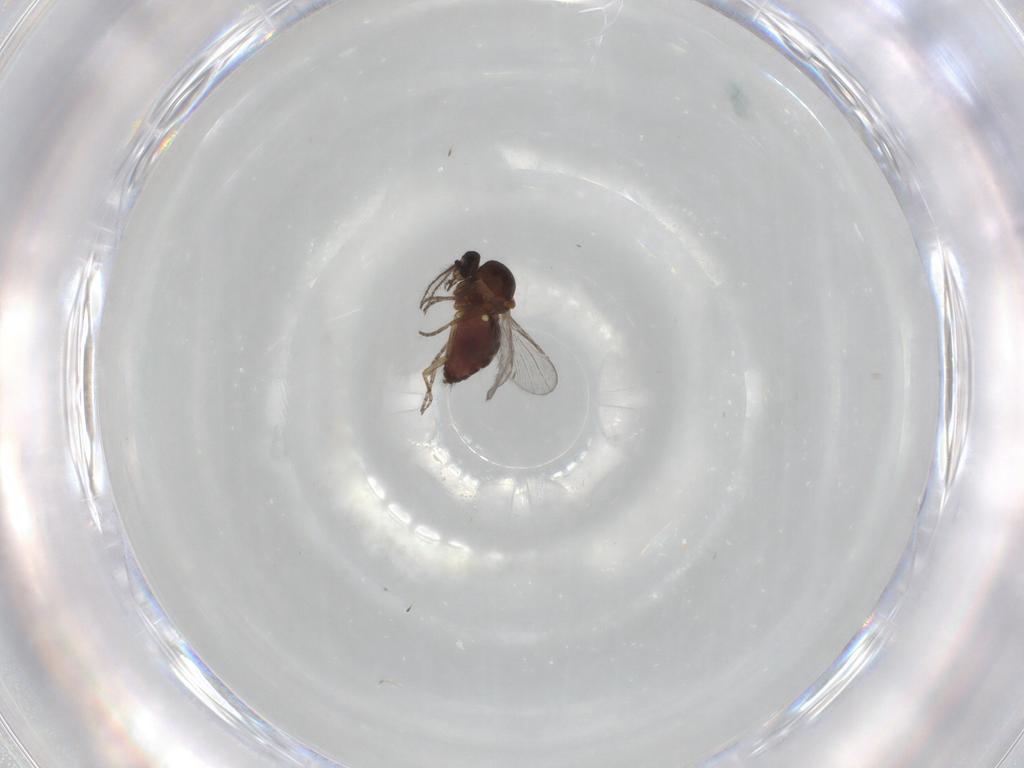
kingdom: Animalia
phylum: Arthropoda
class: Insecta
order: Diptera
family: Ceratopogonidae
